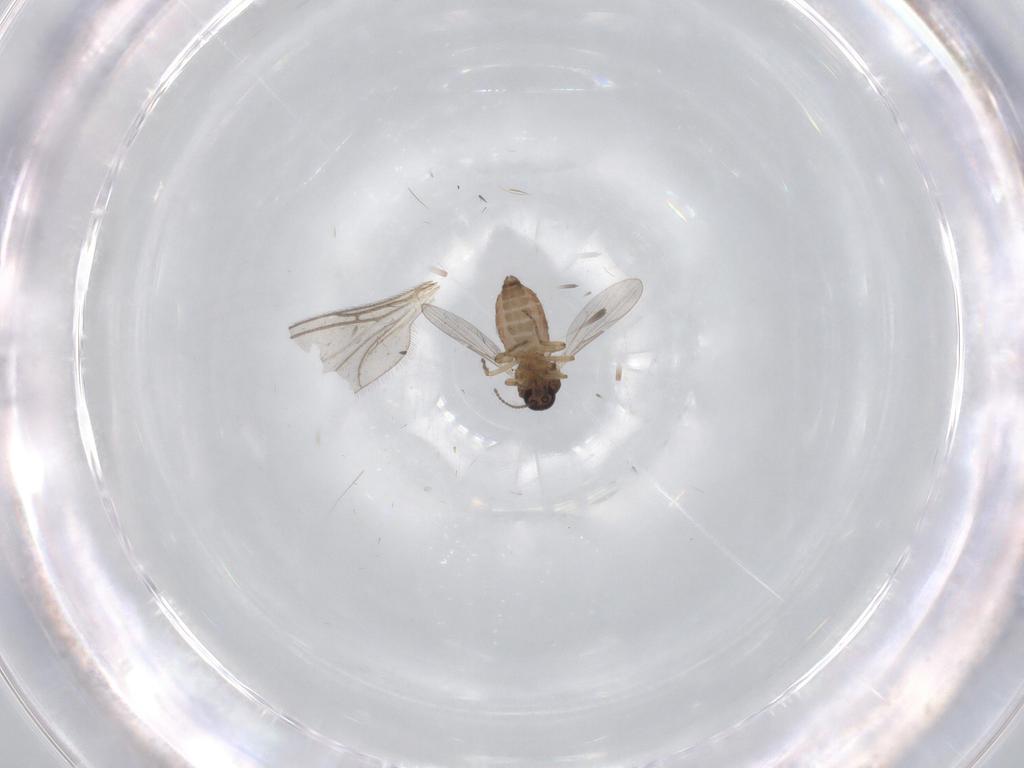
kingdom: Animalia
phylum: Arthropoda
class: Insecta
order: Diptera
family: Ceratopogonidae
